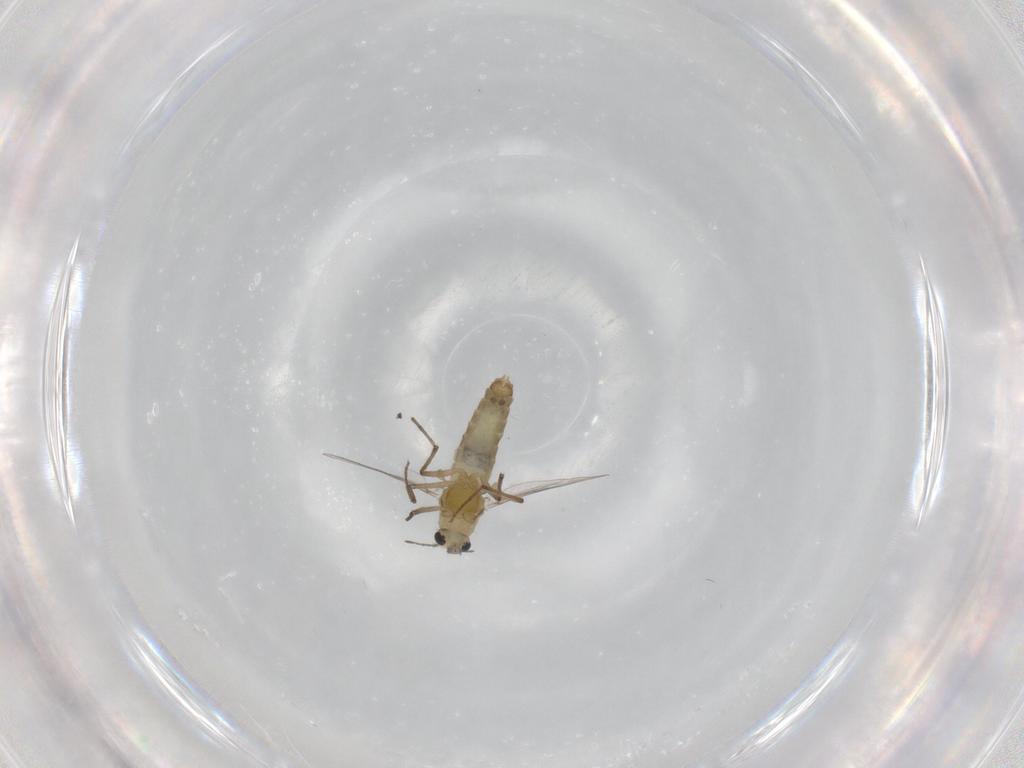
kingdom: Animalia
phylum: Arthropoda
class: Insecta
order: Diptera
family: Chironomidae
